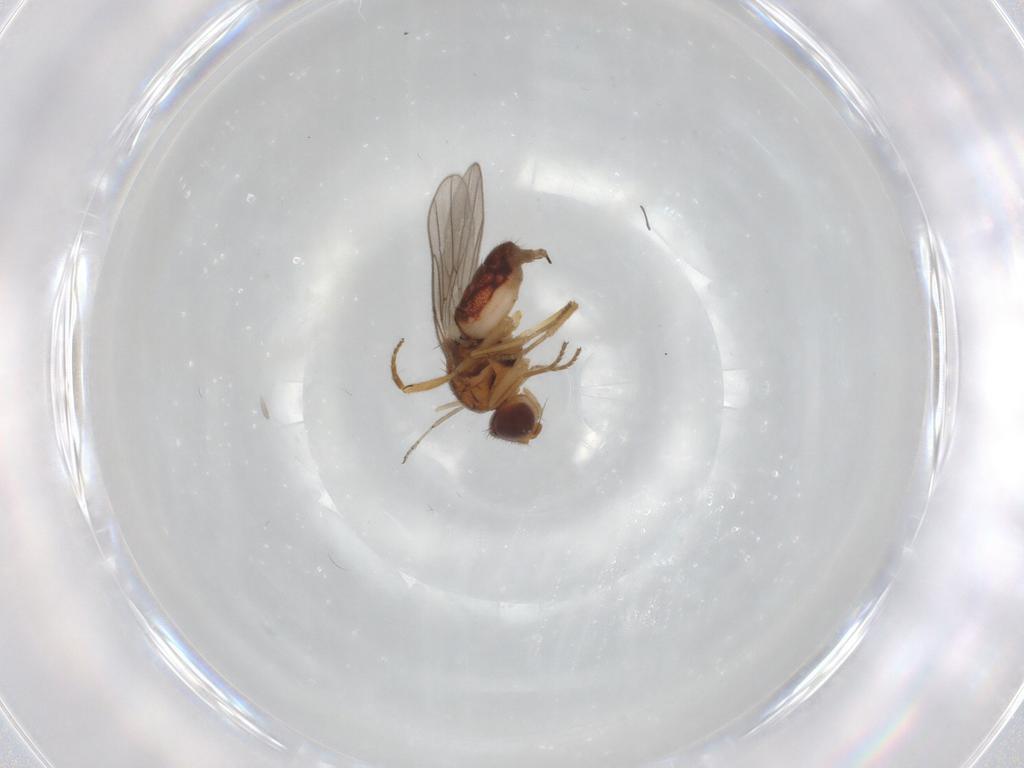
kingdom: Animalia
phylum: Arthropoda
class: Insecta
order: Diptera
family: Chloropidae
